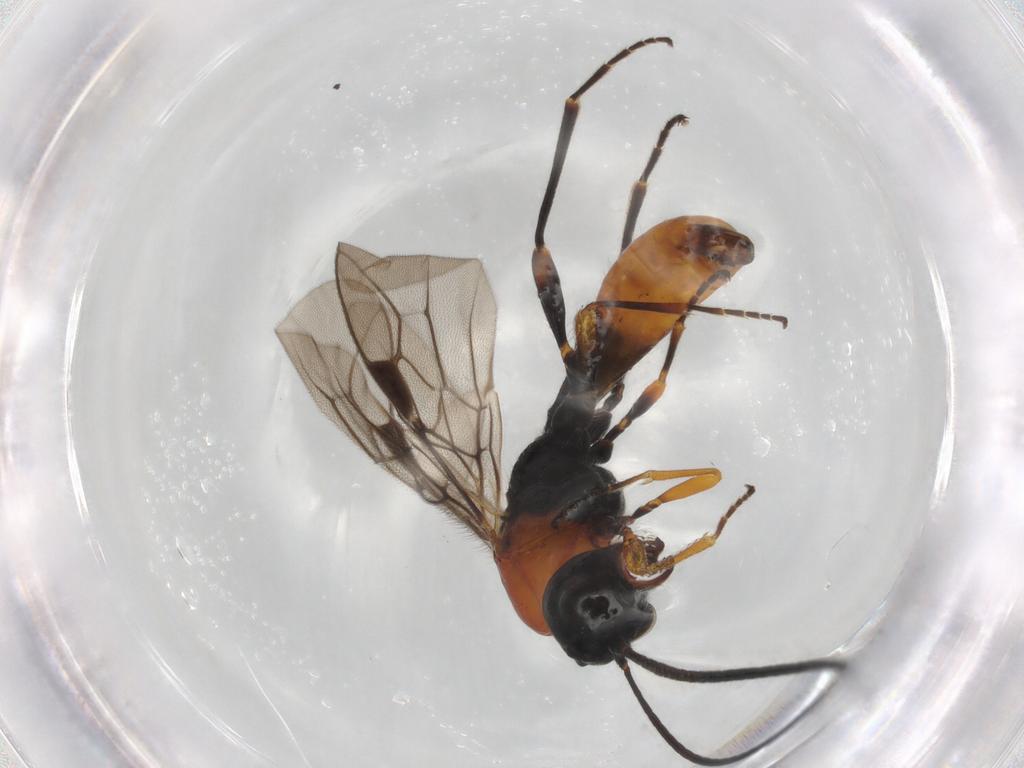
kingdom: Animalia
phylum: Arthropoda
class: Insecta
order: Hymenoptera
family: Braconidae
